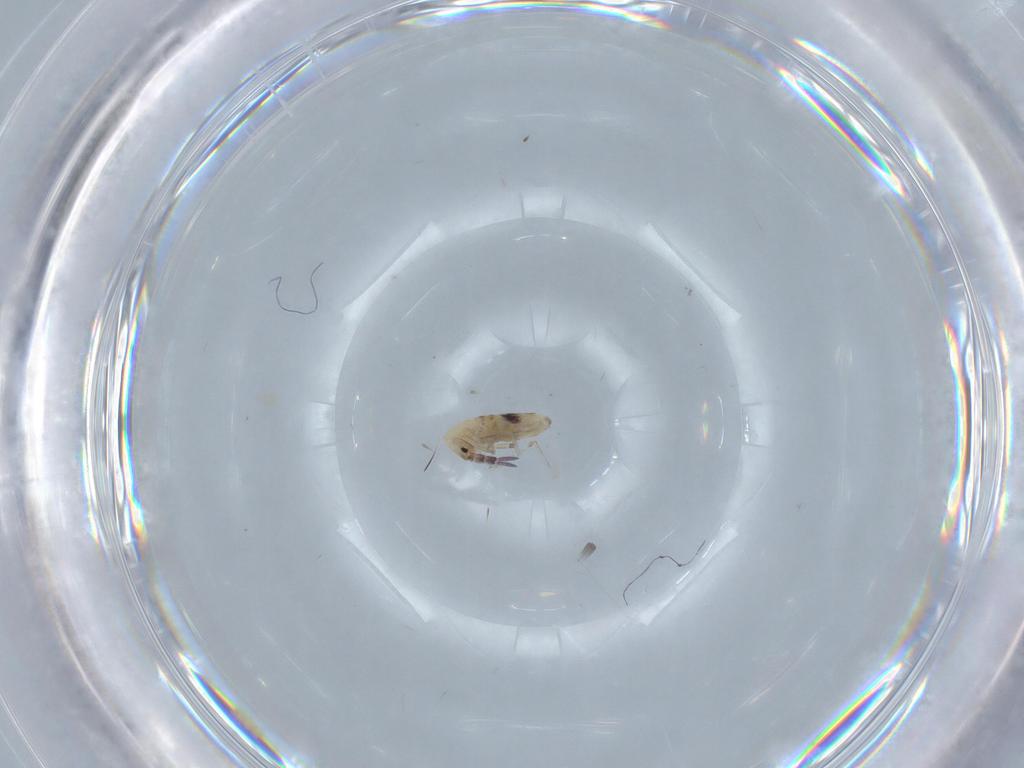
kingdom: Animalia
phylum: Arthropoda
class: Collembola
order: Entomobryomorpha
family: Entomobryidae
